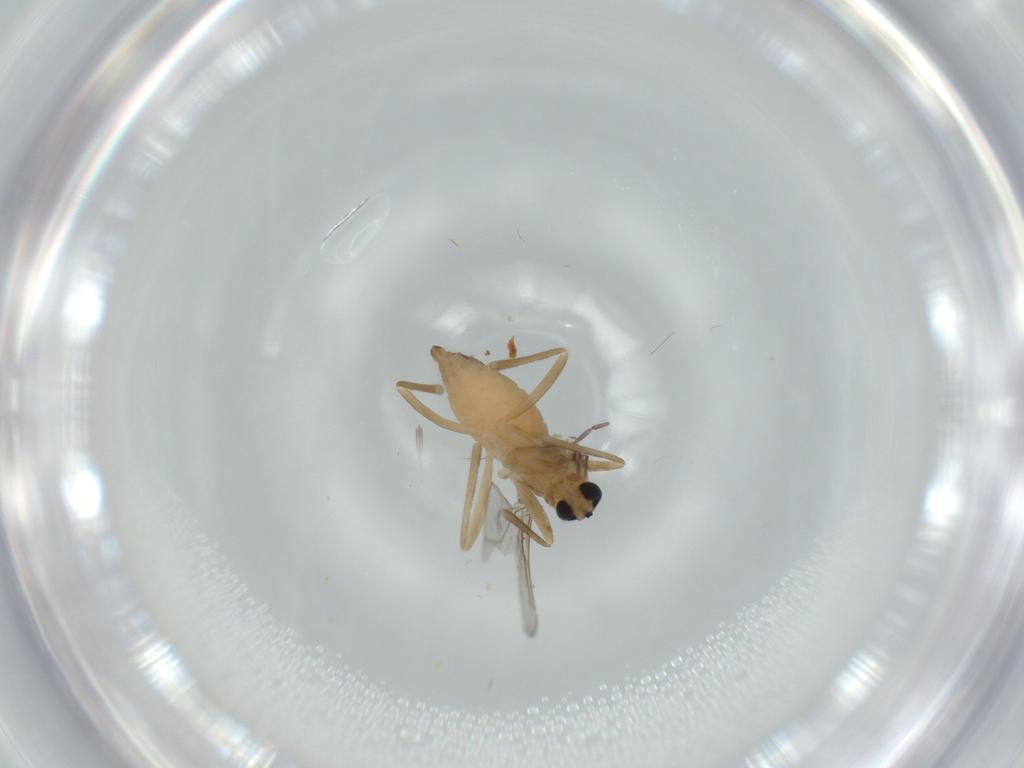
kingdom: Animalia
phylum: Arthropoda
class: Insecta
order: Diptera
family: Cecidomyiidae
